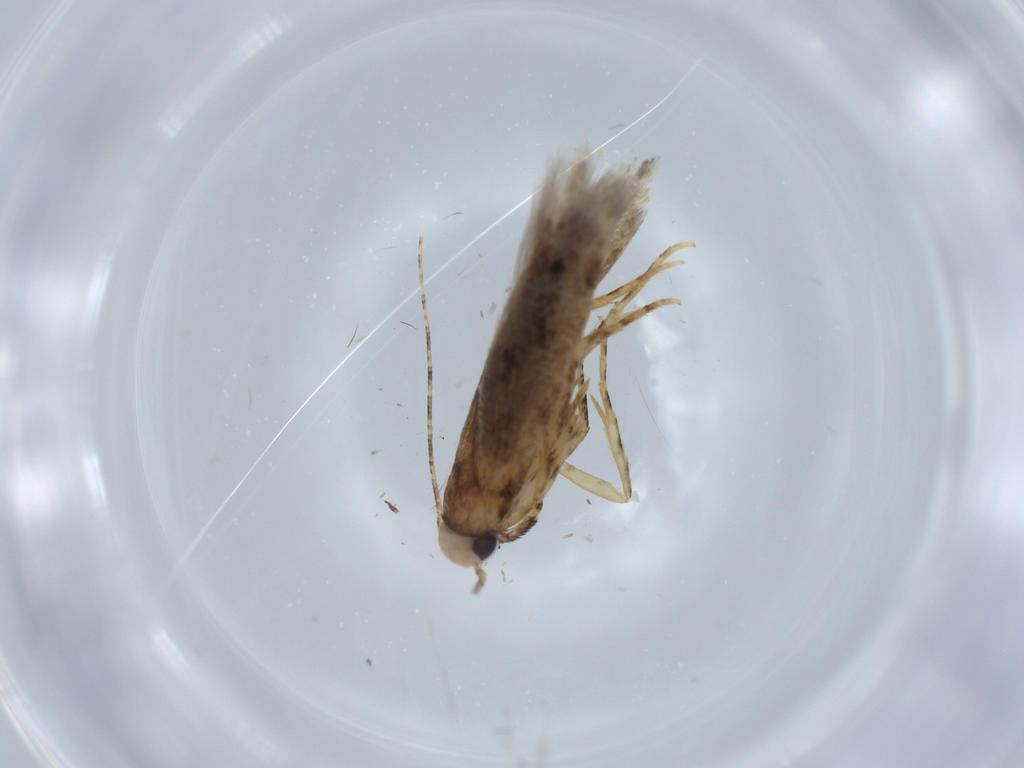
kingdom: Animalia
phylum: Arthropoda
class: Insecta
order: Lepidoptera
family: Gelechiidae
